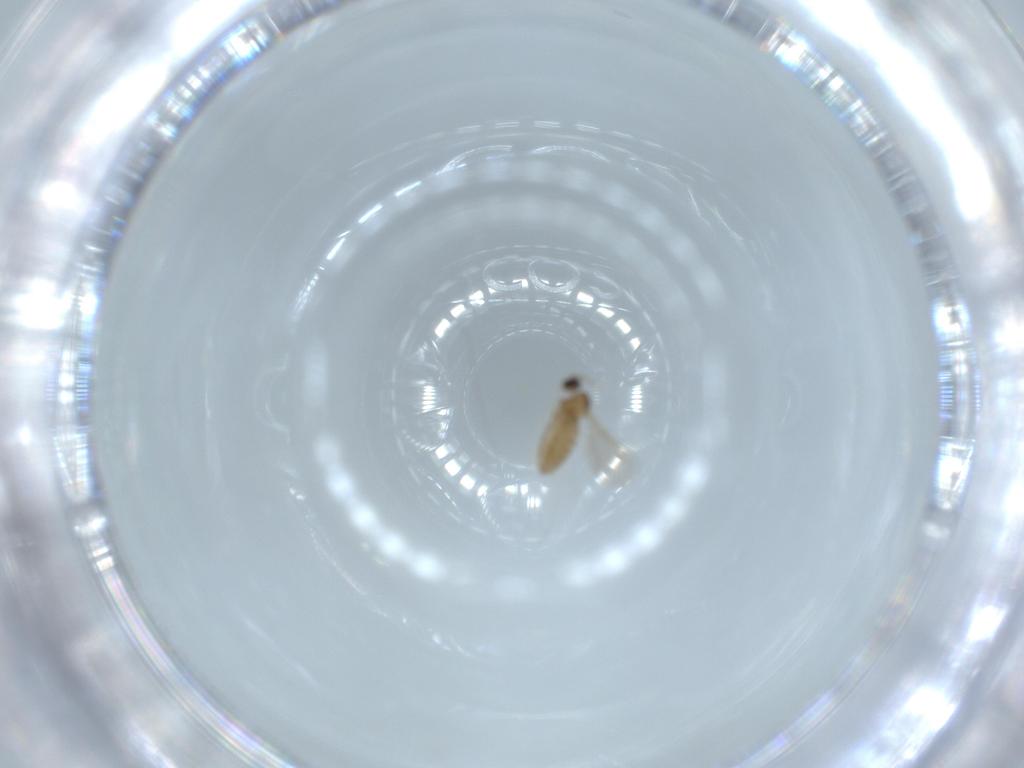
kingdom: Animalia
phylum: Arthropoda
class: Insecta
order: Diptera
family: Cecidomyiidae
